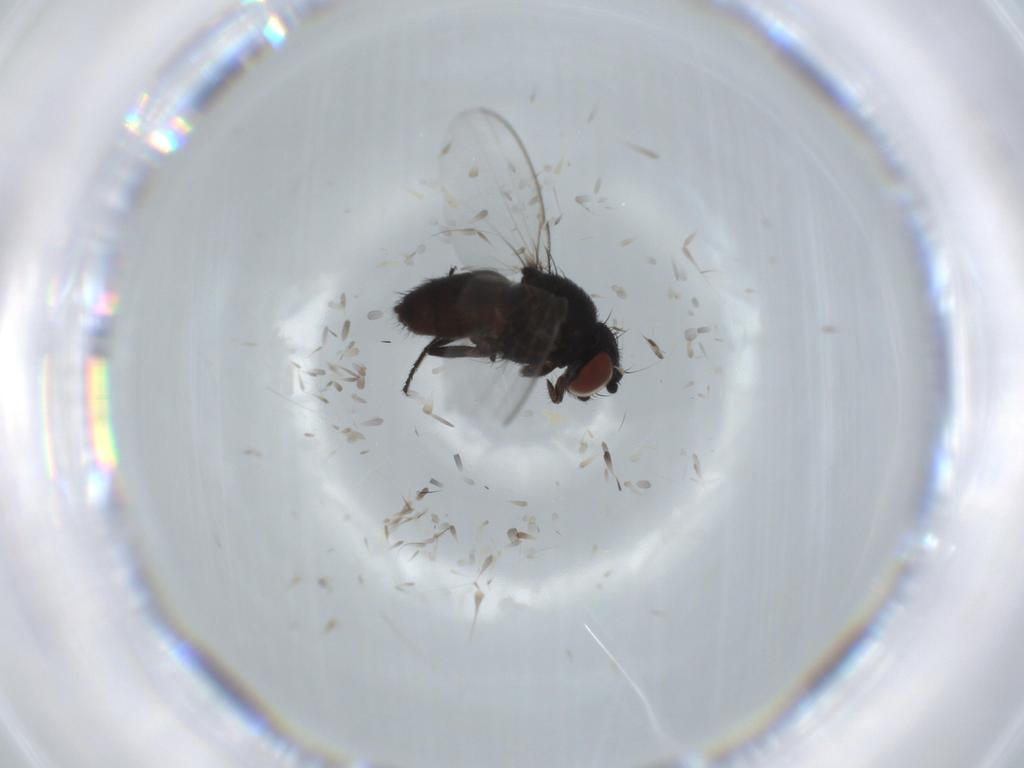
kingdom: Animalia
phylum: Arthropoda
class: Insecta
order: Diptera
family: Milichiidae
